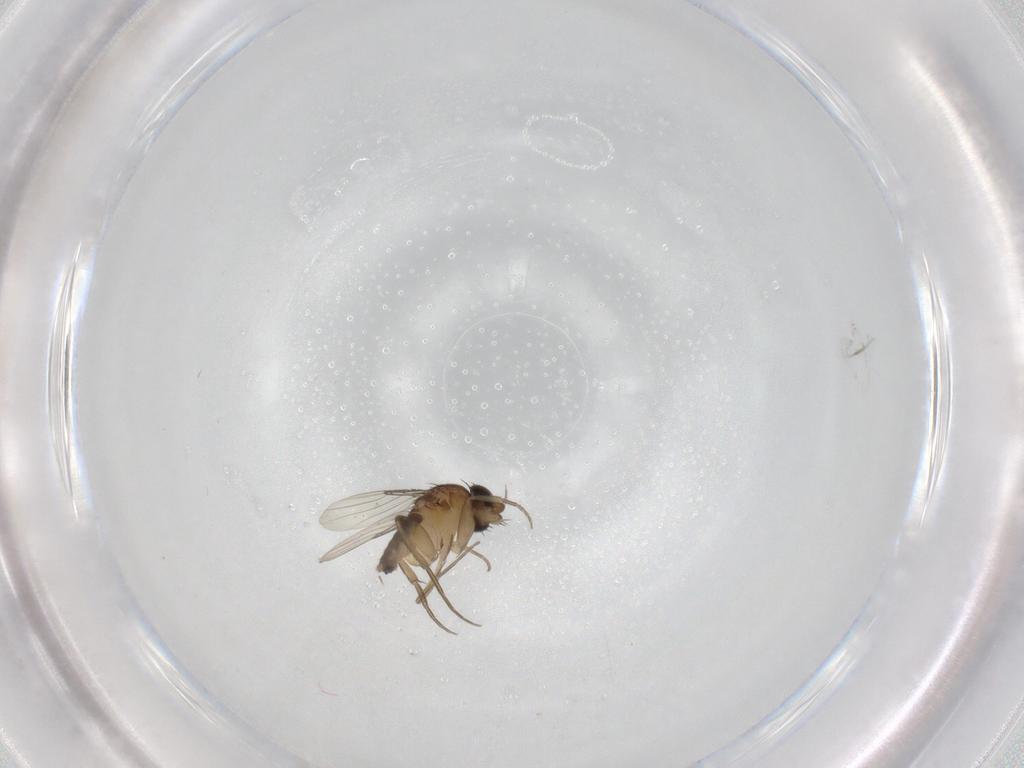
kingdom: Animalia
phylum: Arthropoda
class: Insecta
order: Diptera
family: Phoridae
